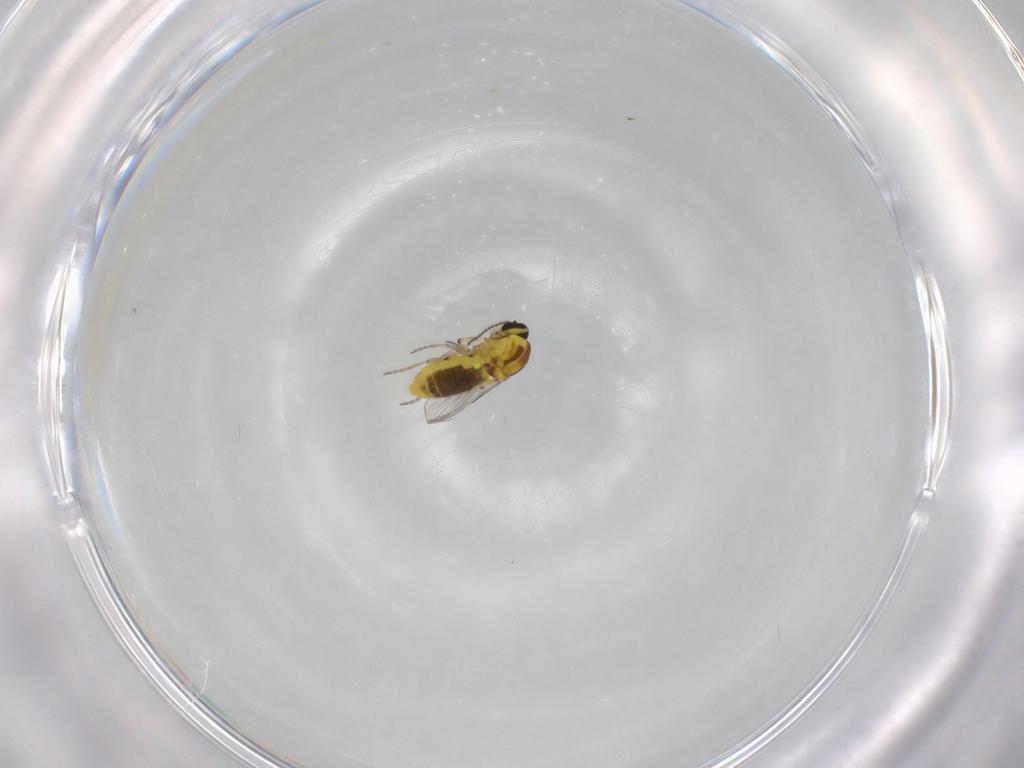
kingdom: Animalia
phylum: Arthropoda
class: Insecta
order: Diptera
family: Ceratopogonidae
